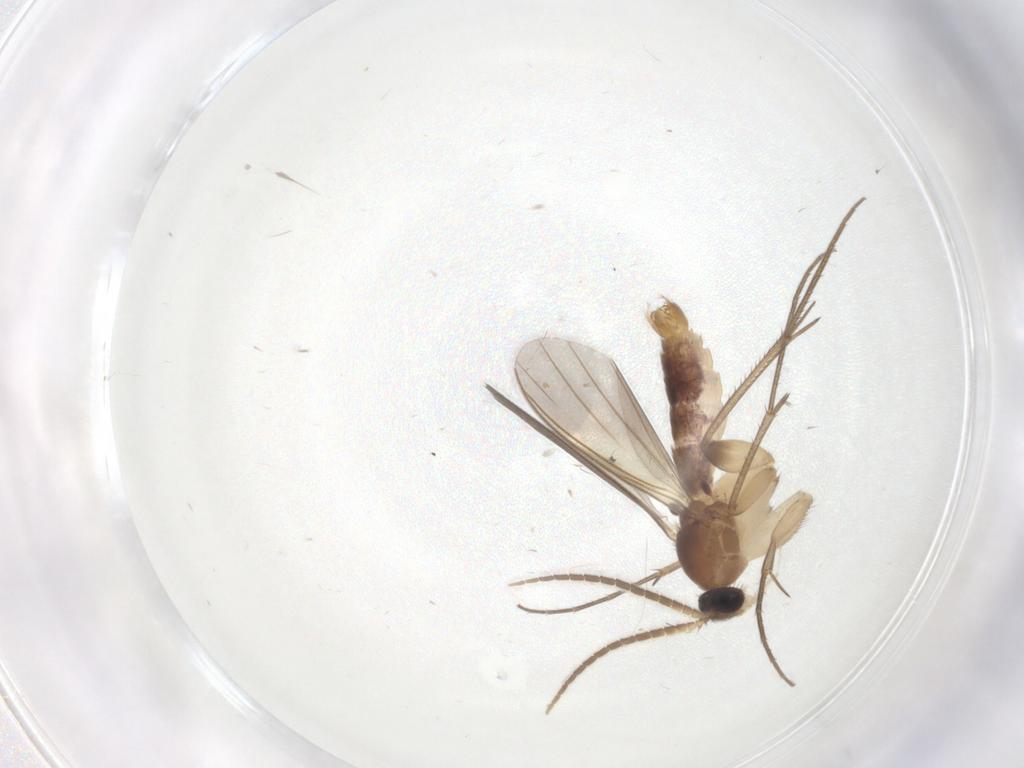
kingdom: Animalia
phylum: Arthropoda
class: Insecta
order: Diptera
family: Mycetophilidae
